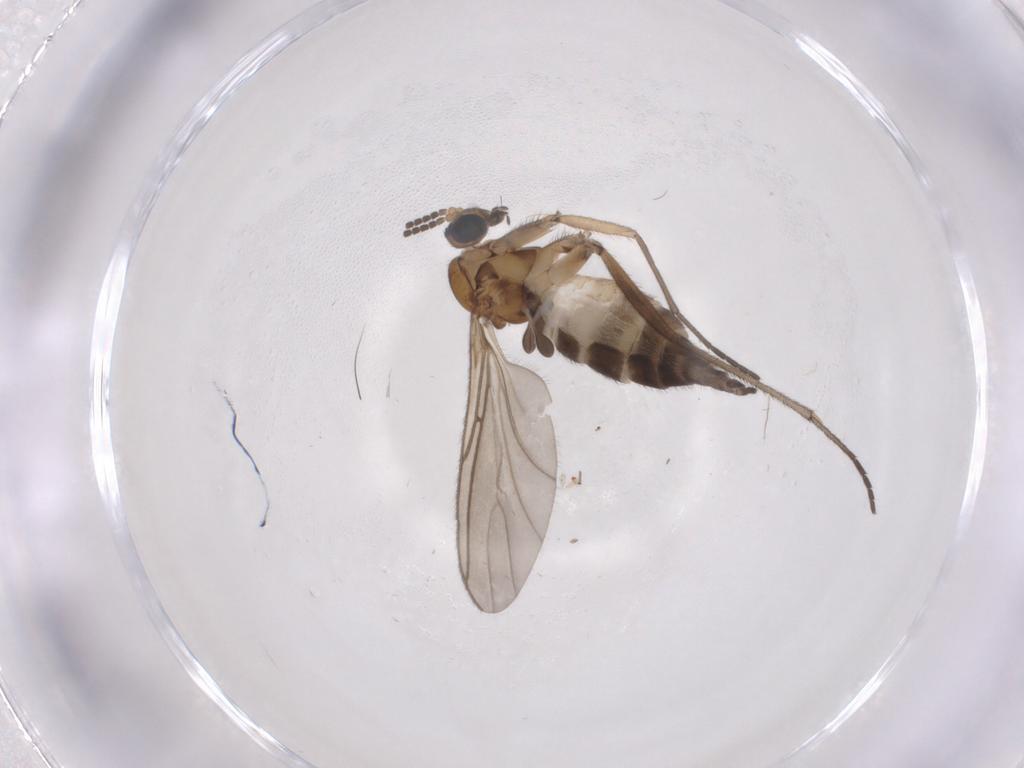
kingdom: Animalia
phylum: Arthropoda
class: Insecta
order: Diptera
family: Sciaridae
